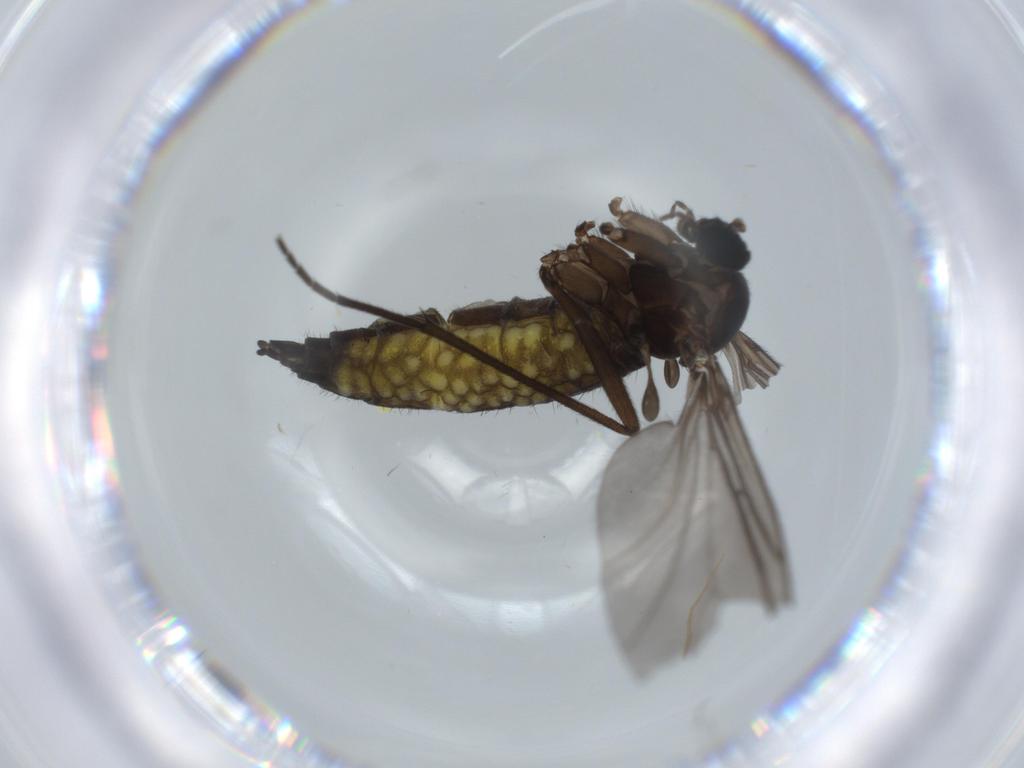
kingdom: Animalia
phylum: Arthropoda
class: Insecta
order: Diptera
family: Sciaridae
